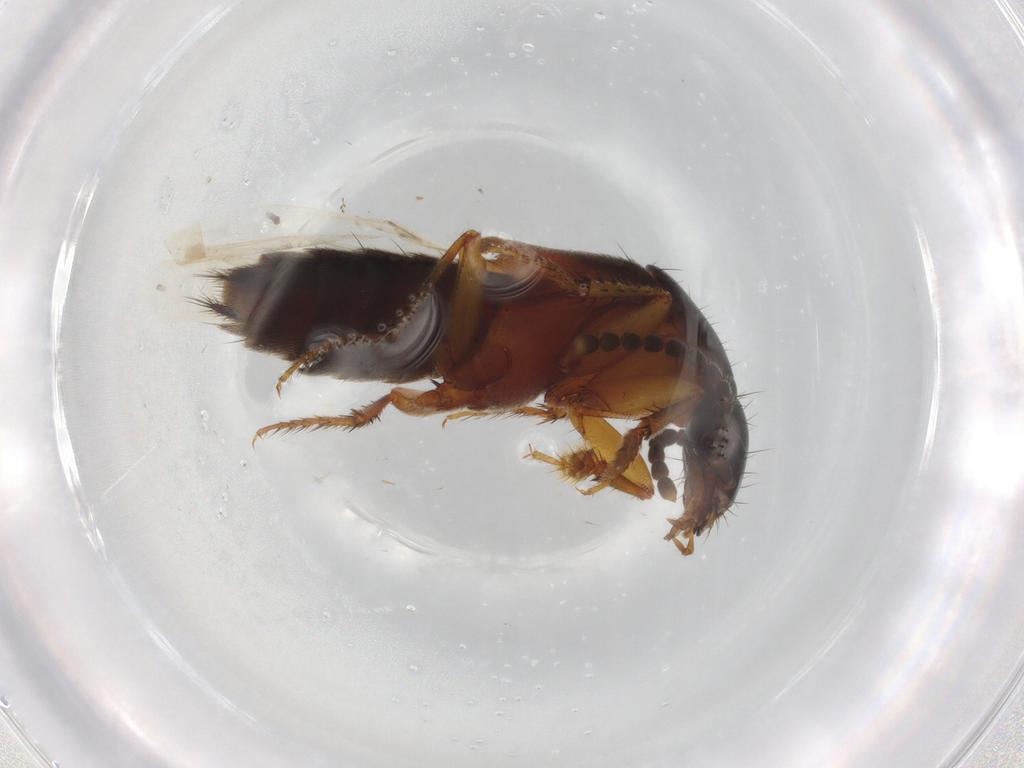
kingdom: Animalia
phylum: Arthropoda
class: Insecta
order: Coleoptera
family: Staphylinidae
